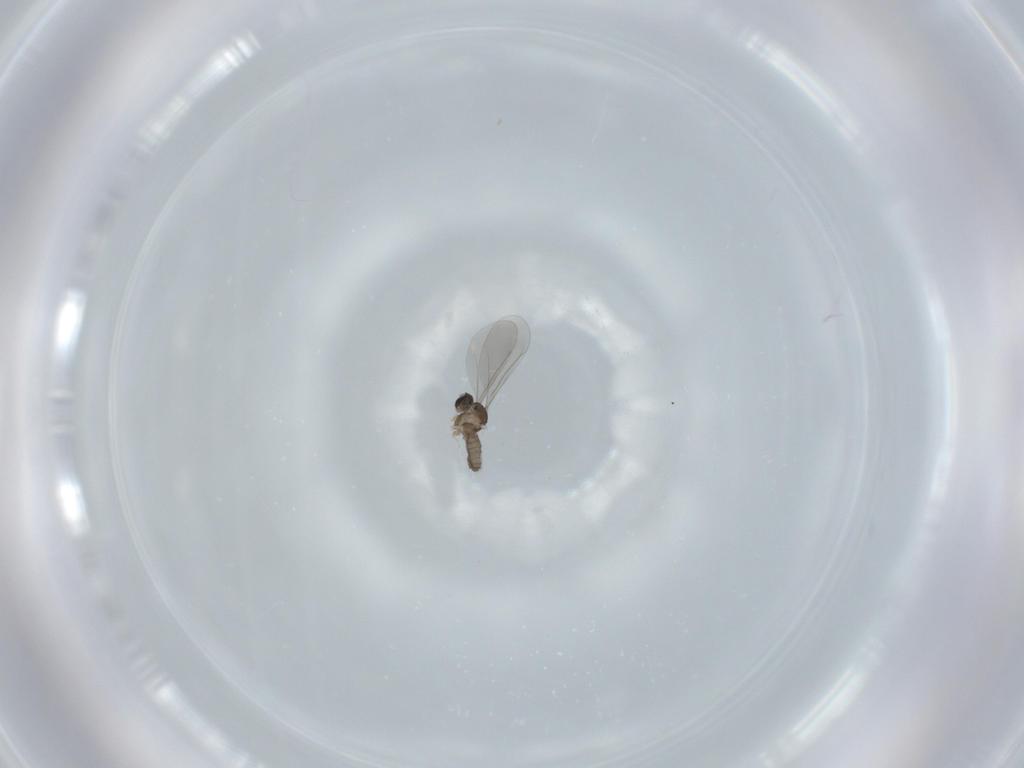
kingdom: Animalia
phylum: Arthropoda
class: Insecta
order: Diptera
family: Cecidomyiidae
